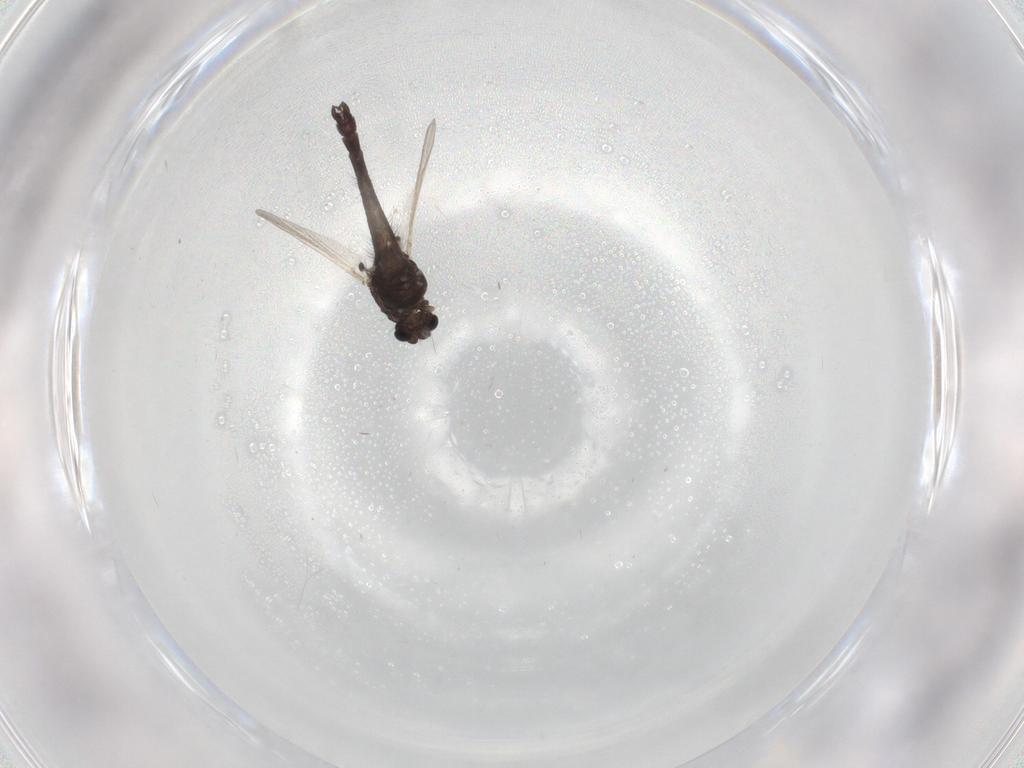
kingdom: Animalia
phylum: Arthropoda
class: Insecta
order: Diptera
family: Chironomidae
